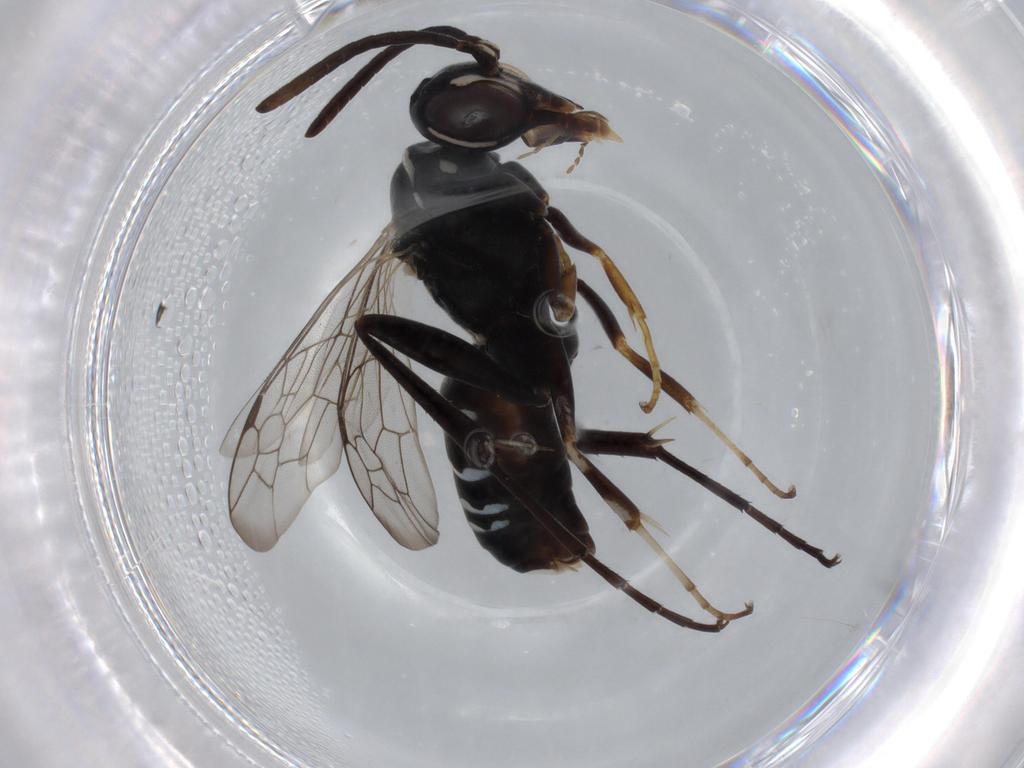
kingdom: Animalia
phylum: Arthropoda
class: Insecta
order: Hymenoptera
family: Pompilidae
